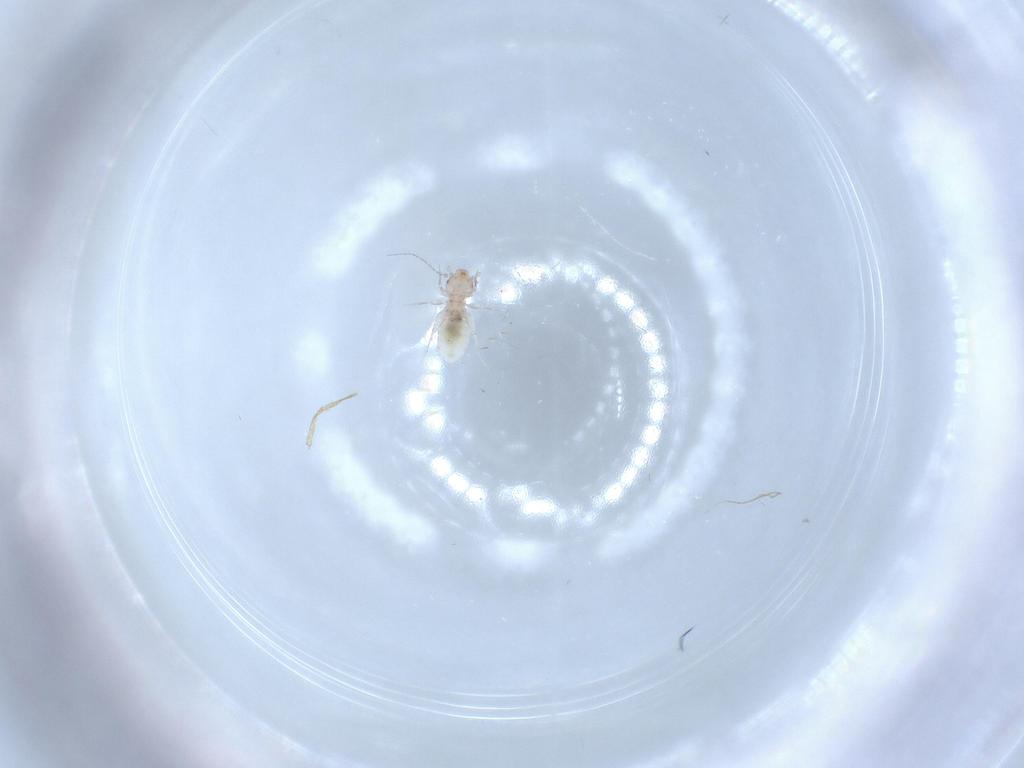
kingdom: Animalia
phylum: Arthropoda
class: Insecta
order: Psocodea
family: Liposcelididae
